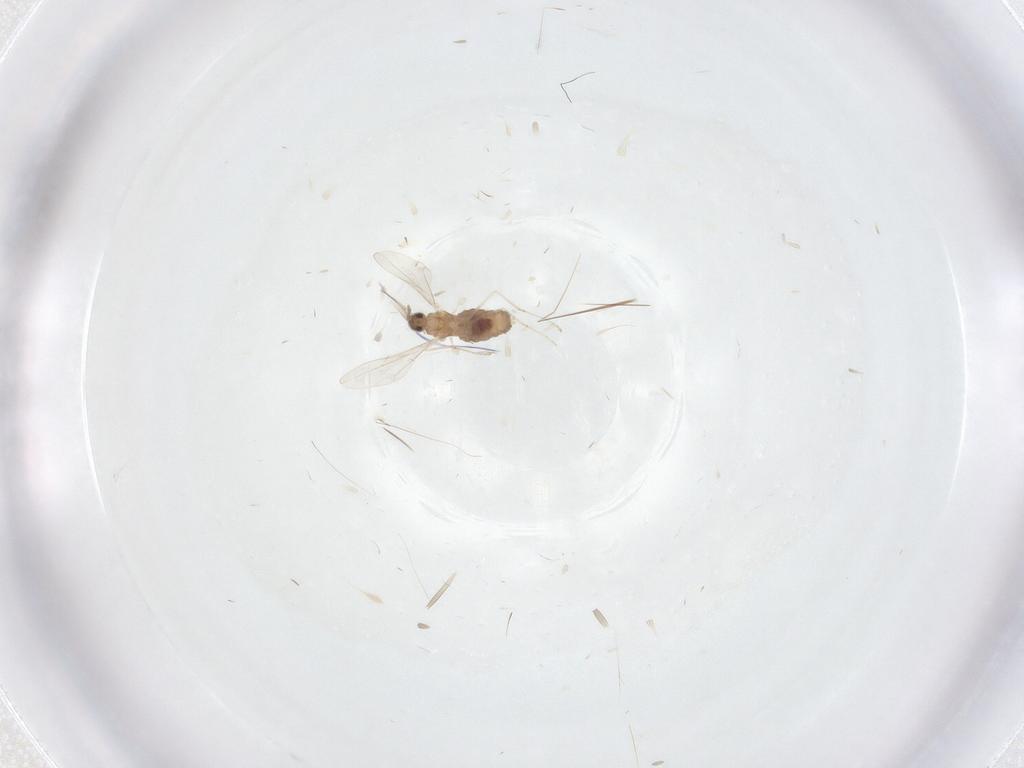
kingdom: Animalia
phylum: Arthropoda
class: Insecta
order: Diptera
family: Cecidomyiidae
